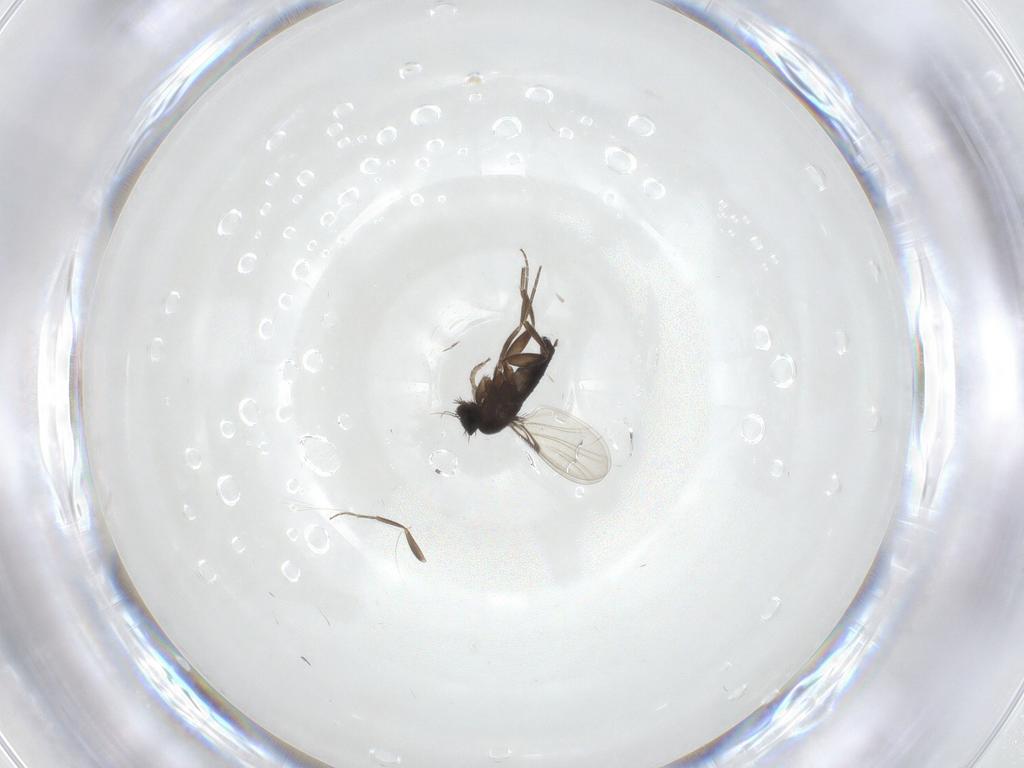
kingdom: Animalia
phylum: Arthropoda
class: Insecta
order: Diptera
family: Phoridae
